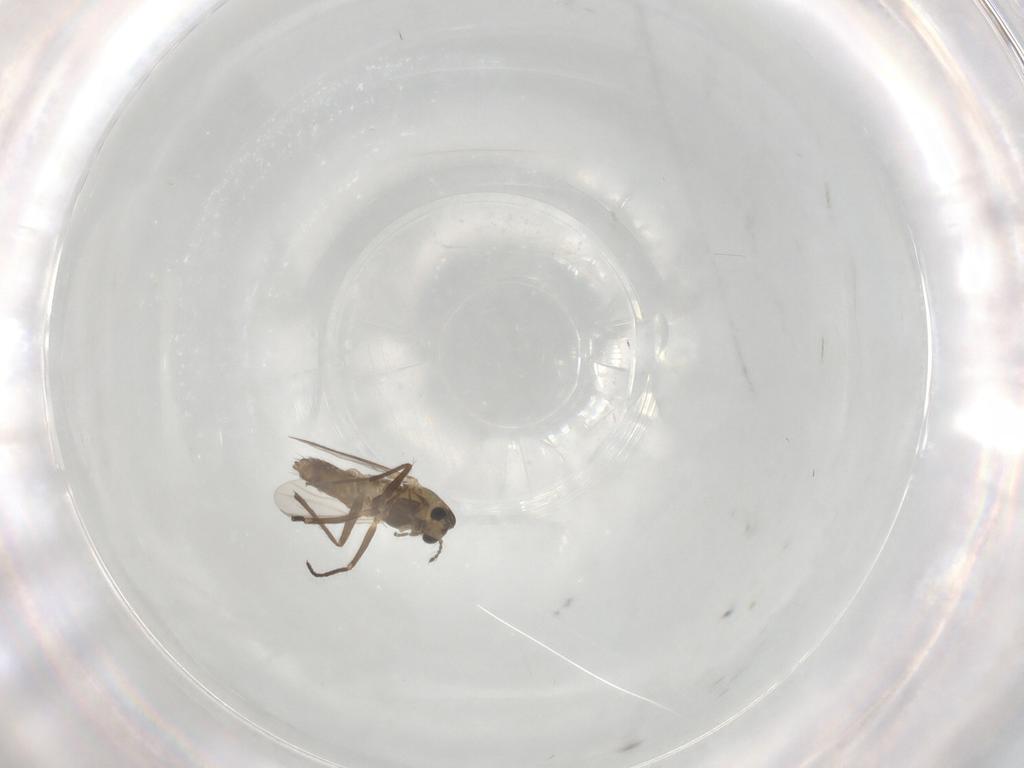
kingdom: Animalia
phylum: Arthropoda
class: Insecta
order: Diptera
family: Chironomidae
